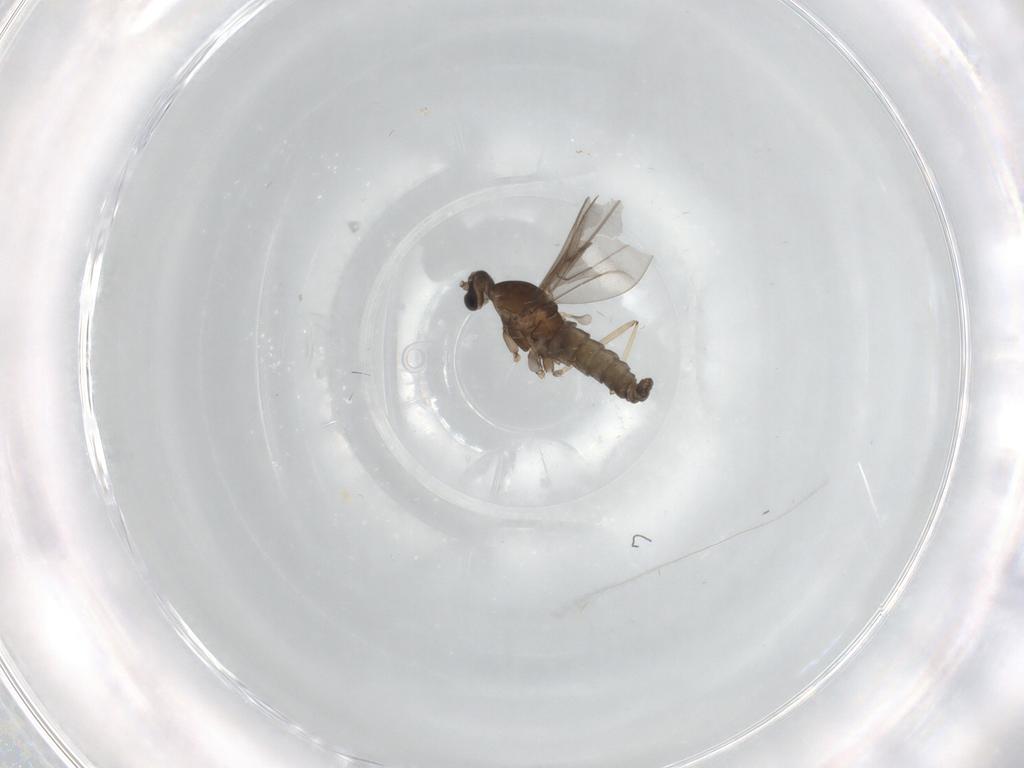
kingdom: Animalia
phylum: Arthropoda
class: Insecta
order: Diptera
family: Cecidomyiidae
